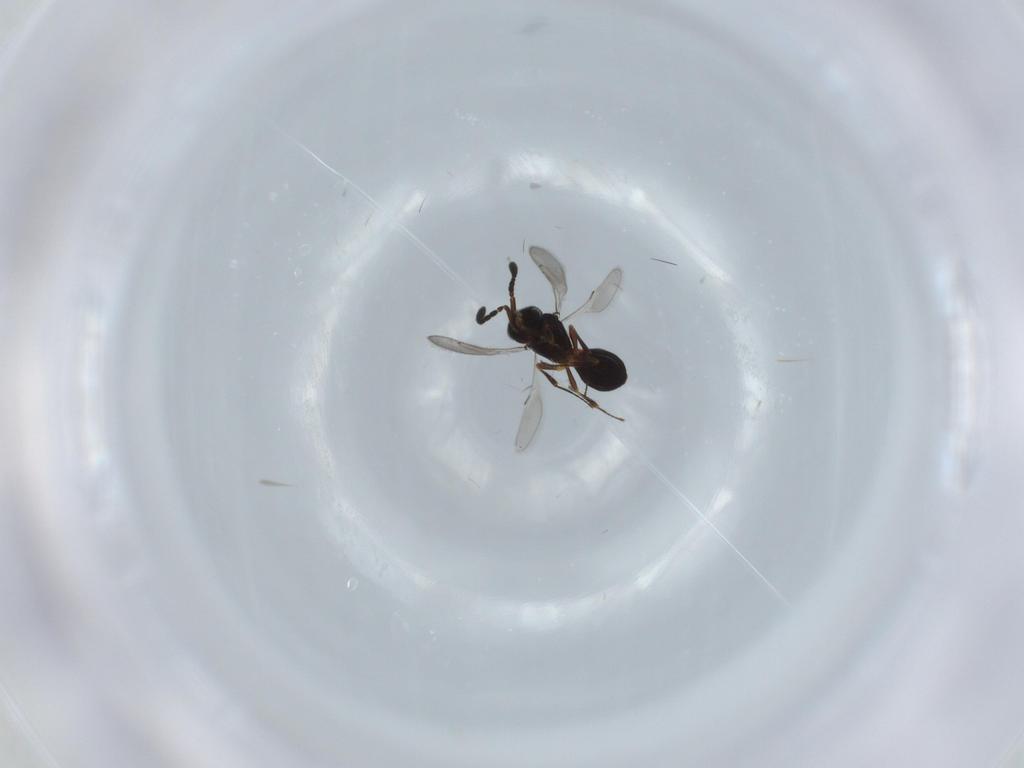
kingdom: Animalia
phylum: Arthropoda
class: Insecta
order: Hymenoptera
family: Scelionidae
